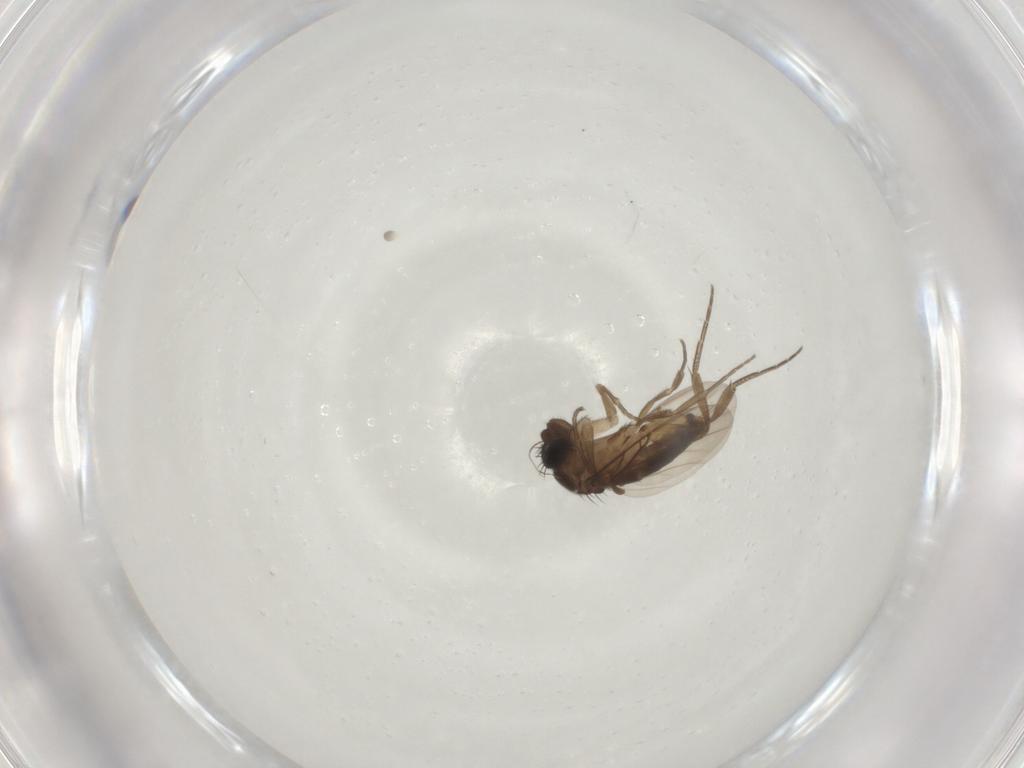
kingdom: Animalia
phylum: Arthropoda
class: Insecta
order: Diptera
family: Phoridae
